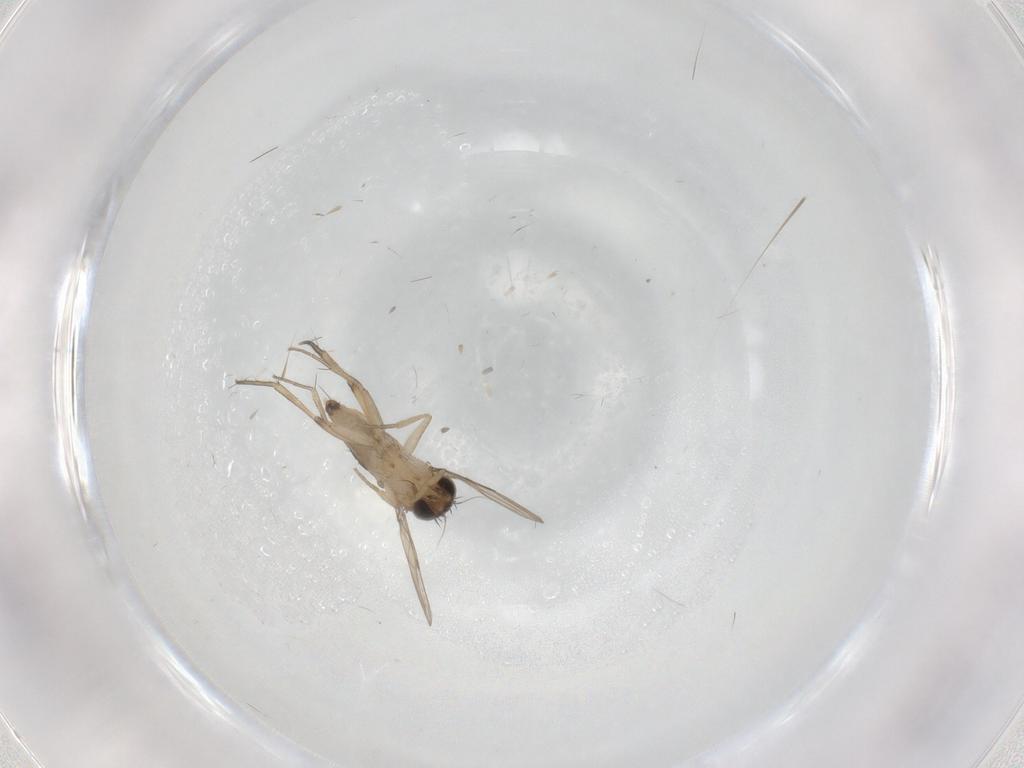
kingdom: Animalia
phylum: Arthropoda
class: Insecta
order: Diptera
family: Phoridae
